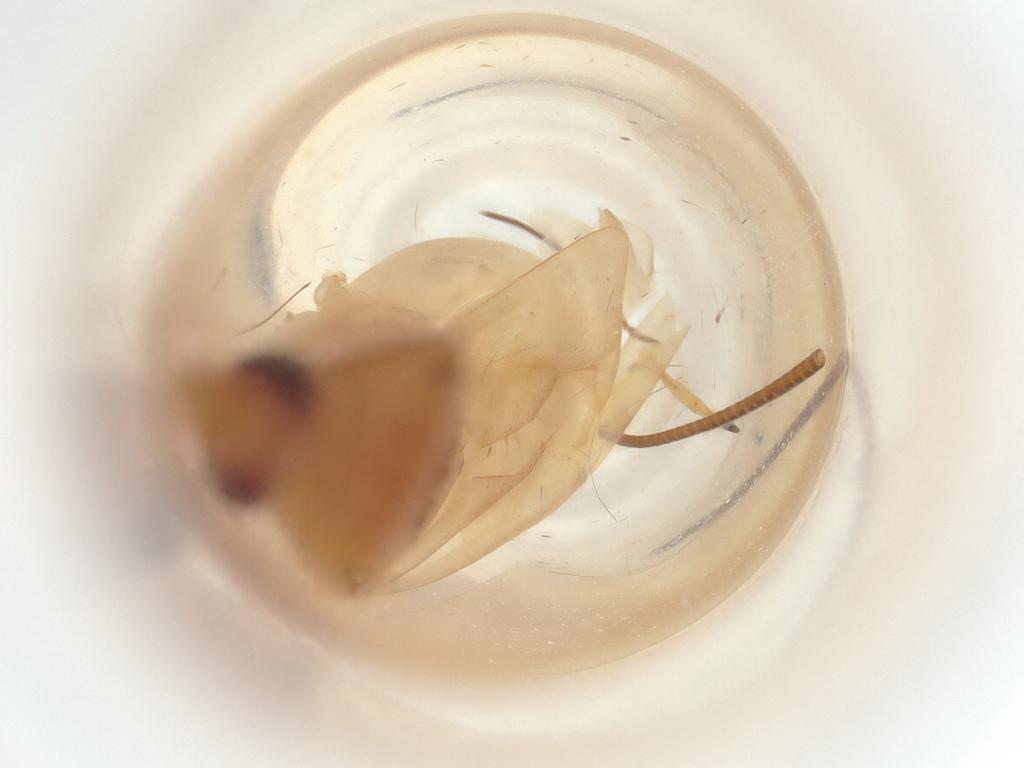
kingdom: Animalia
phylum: Arthropoda
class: Insecta
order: Hemiptera
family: Miridae
